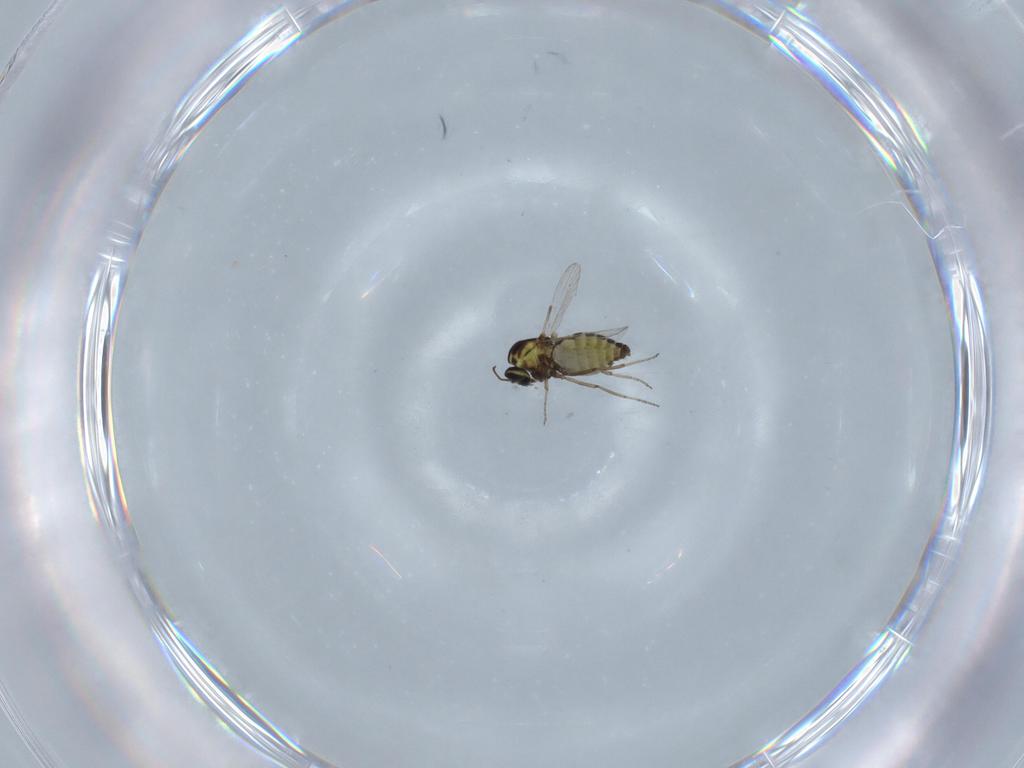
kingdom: Animalia
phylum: Arthropoda
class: Insecta
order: Diptera
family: Ceratopogonidae
